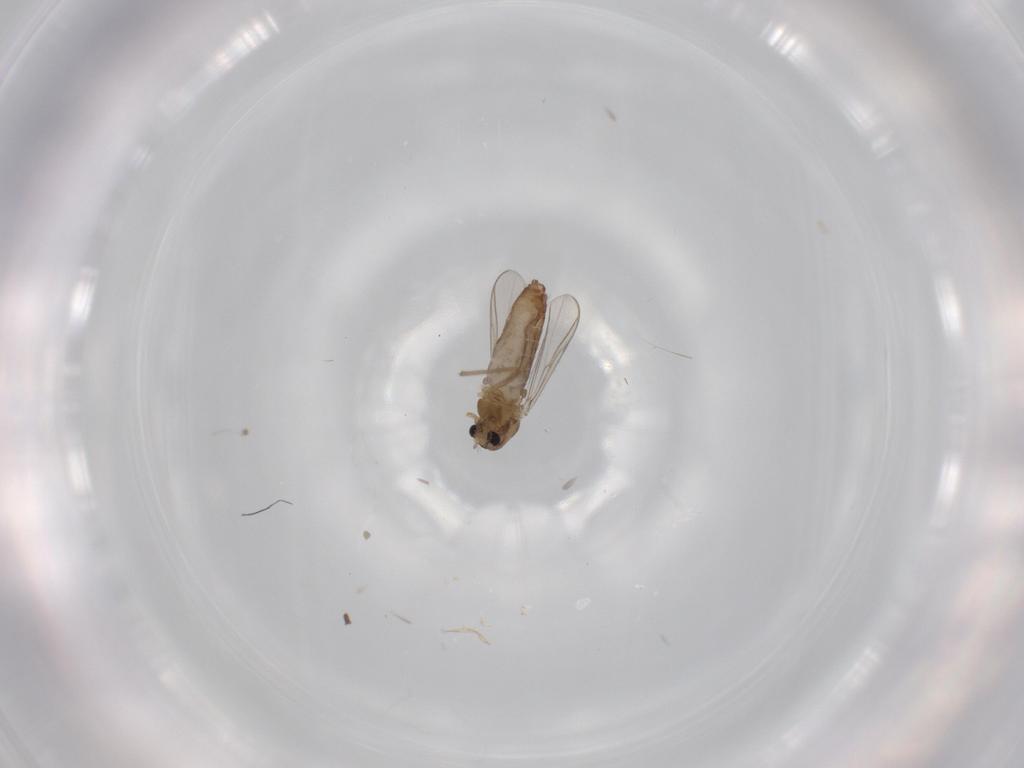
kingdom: Animalia
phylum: Arthropoda
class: Insecta
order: Diptera
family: Chironomidae
